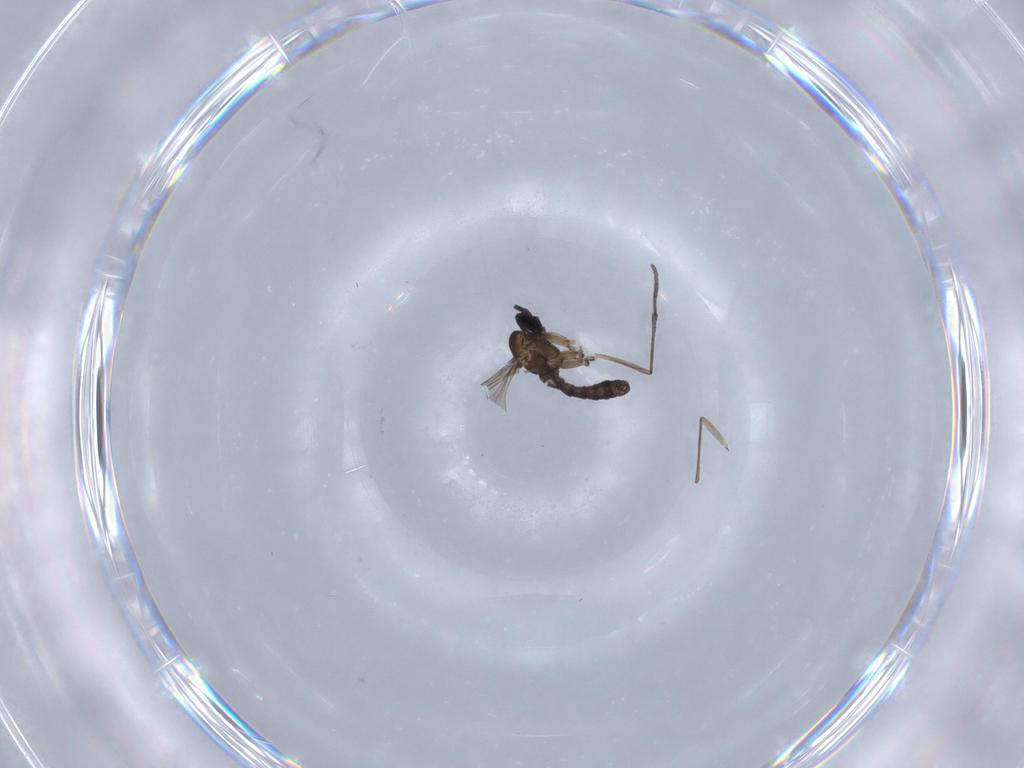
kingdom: Animalia
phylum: Arthropoda
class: Insecta
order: Diptera
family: Sciaridae
